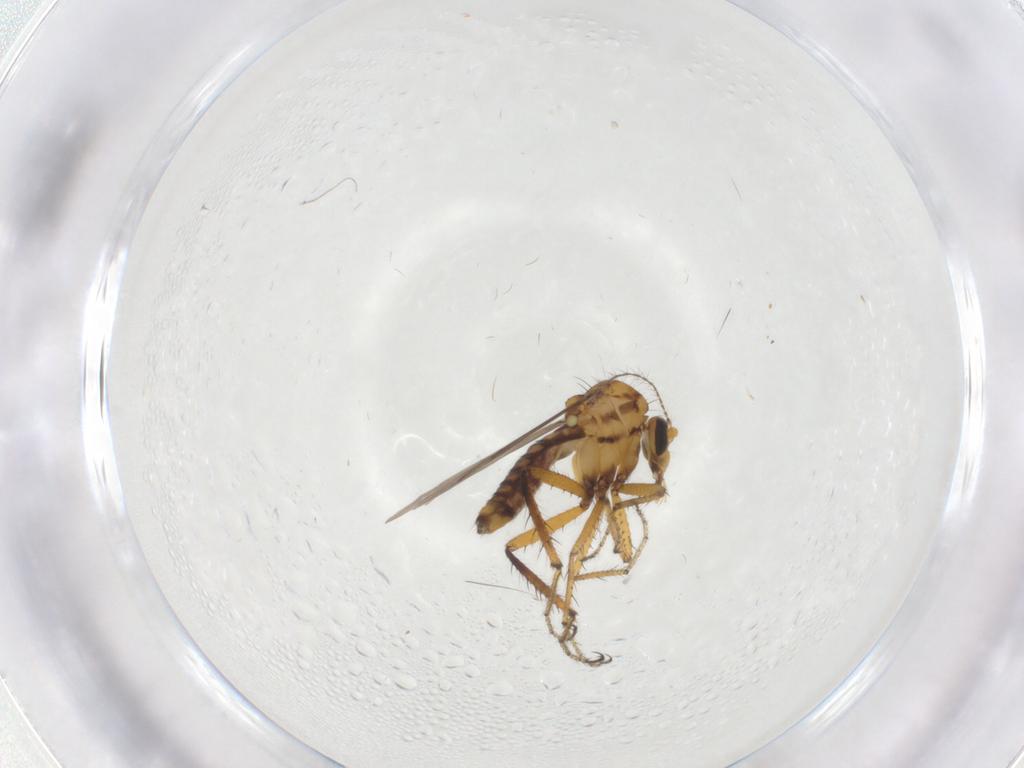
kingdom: Animalia
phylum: Arthropoda
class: Insecta
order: Diptera
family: Ceratopogonidae
